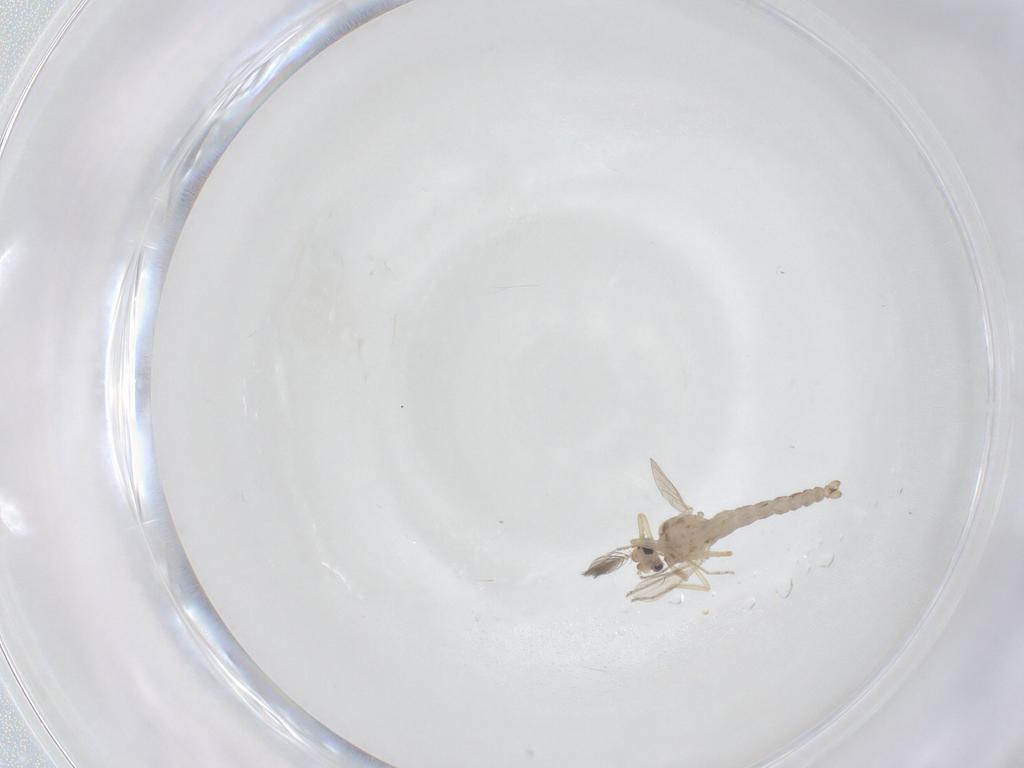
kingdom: Animalia
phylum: Arthropoda
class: Insecta
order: Diptera
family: Ceratopogonidae
